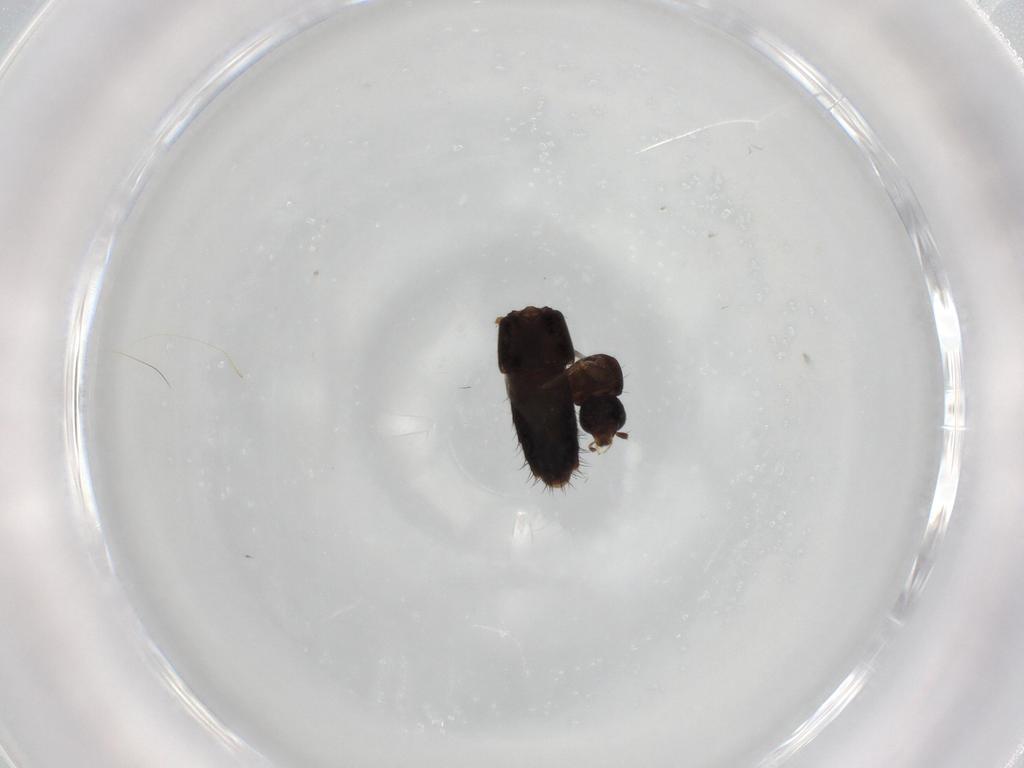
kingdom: Animalia
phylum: Arthropoda
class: Insecta
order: Coleoptera
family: Staphylinidae
